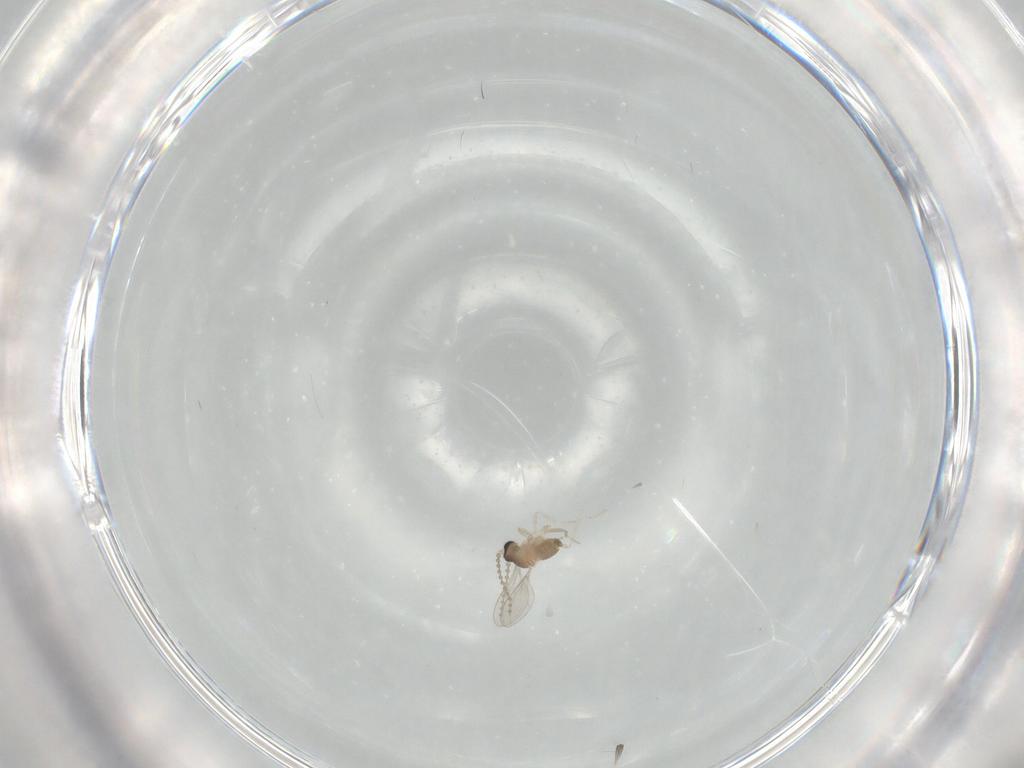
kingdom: Animalia
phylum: Arthropoda
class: Insecta
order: Diptera
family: Cecidomyiidae
